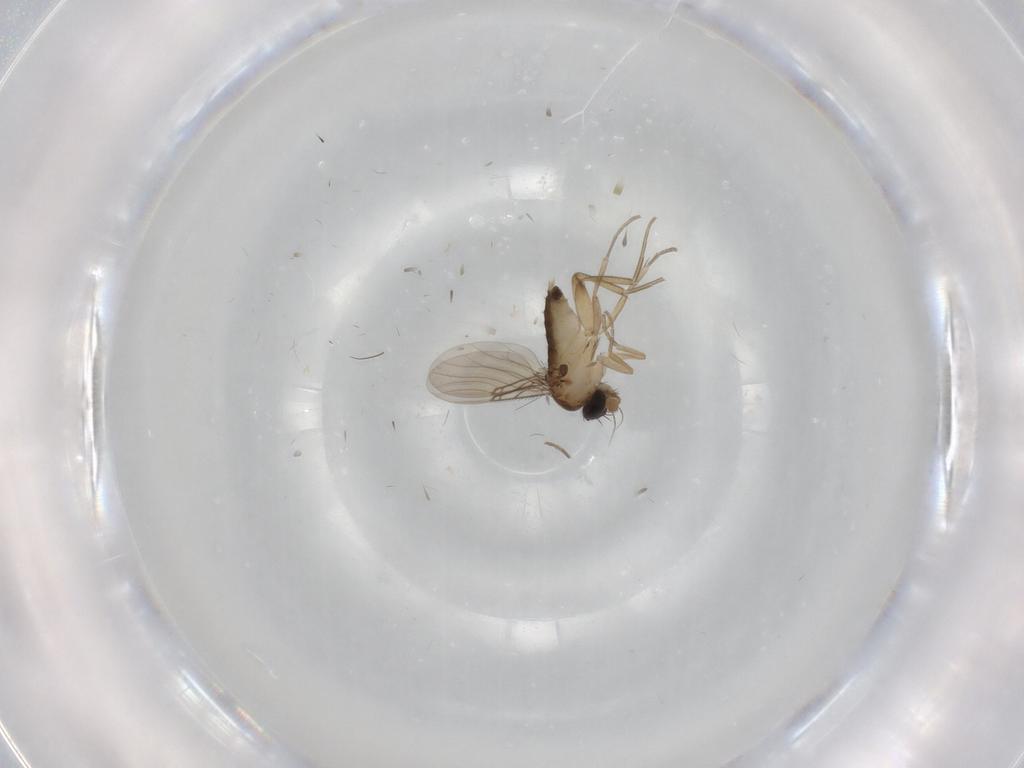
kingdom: Animalia
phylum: Arthropoda
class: Insecta
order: Diptera
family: Phoridae
